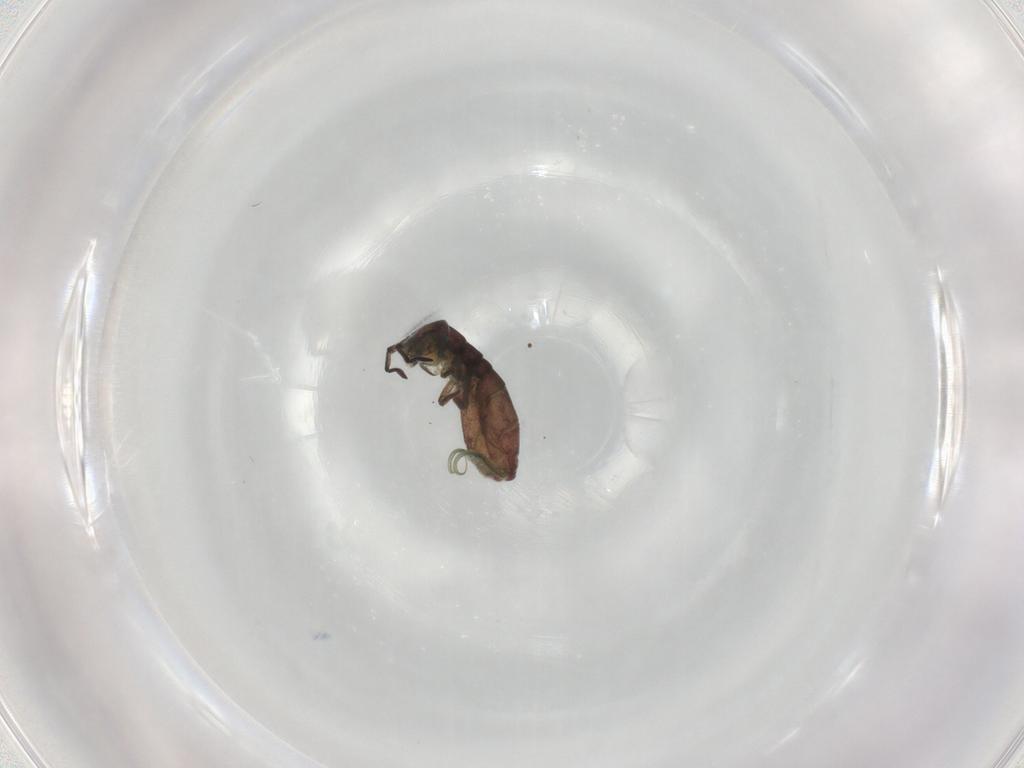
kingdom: Animalia
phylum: Arthropoda
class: Collembola
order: Entomobryomorpha
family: Isotomidae
